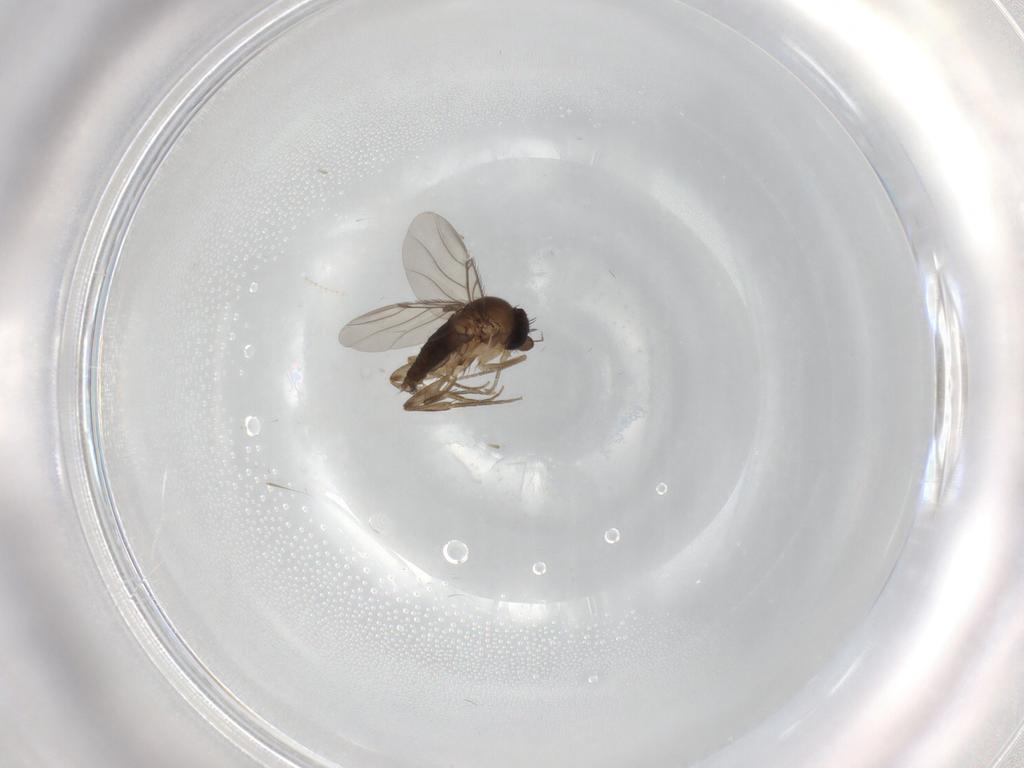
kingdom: Animalia
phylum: Arthropoda
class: Insecta
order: Diptera
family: Phoridae
